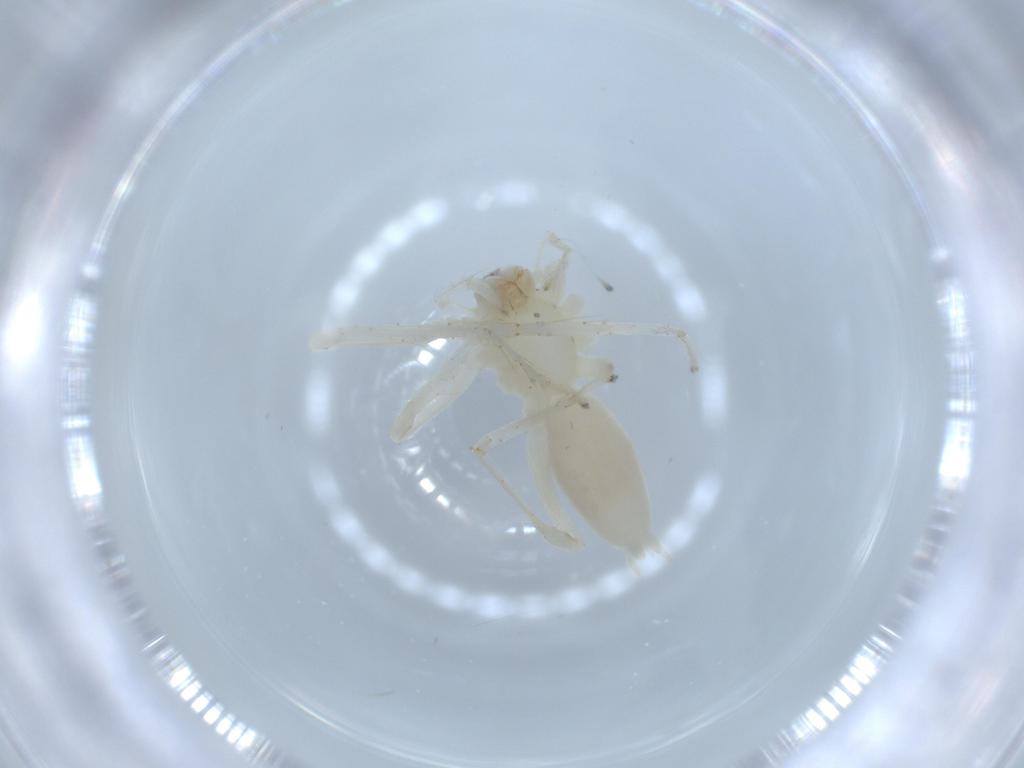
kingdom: Animalia
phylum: Arthropoda
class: Arachnida
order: Araneae
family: Anyphaenidae
